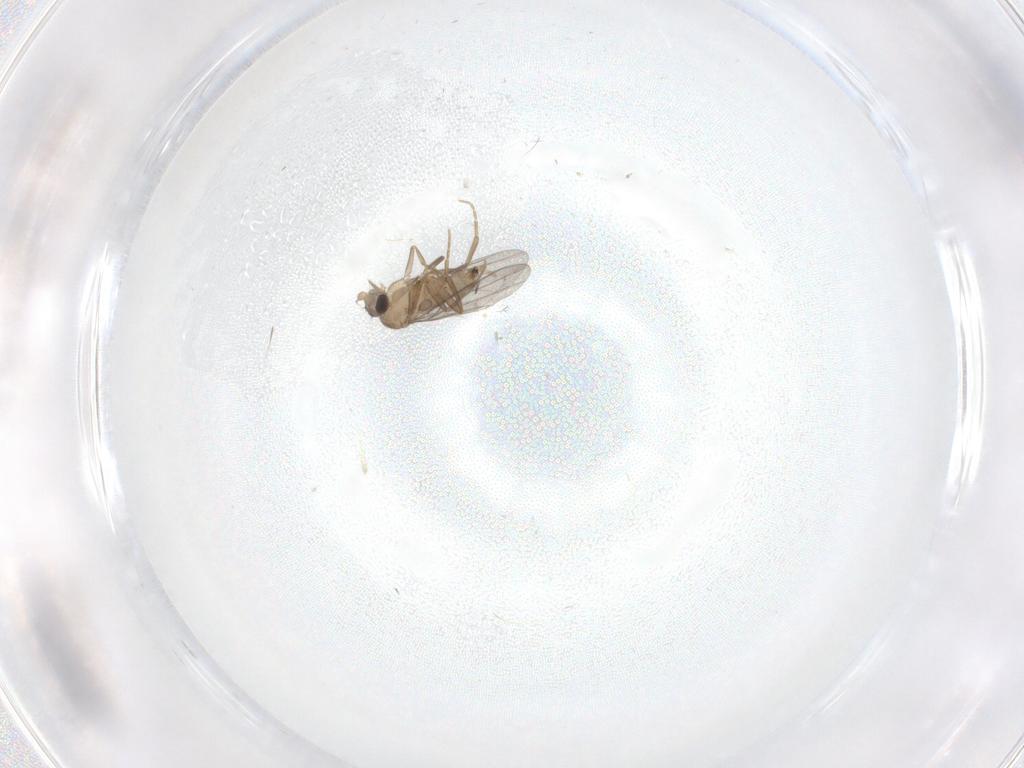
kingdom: Animalia
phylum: Arthropoda
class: Insecta
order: Diptera
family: Chironomidae
